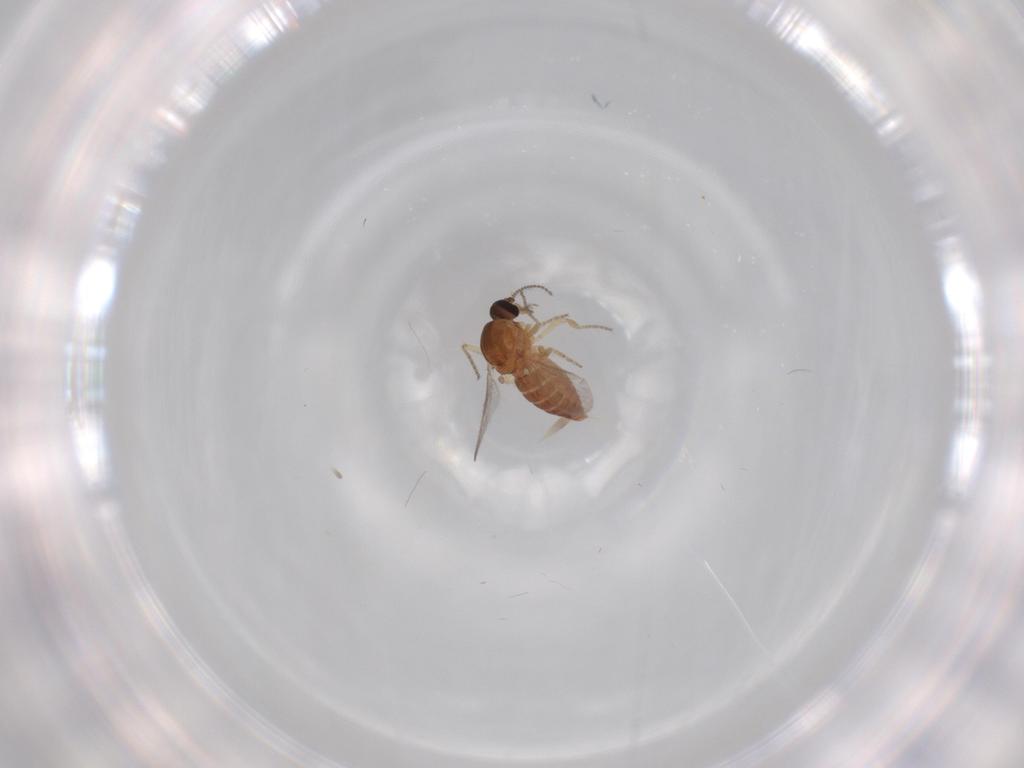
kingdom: Animalia
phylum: Arthropoda
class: Insecta
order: Diptera
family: Ceratopogonidae
